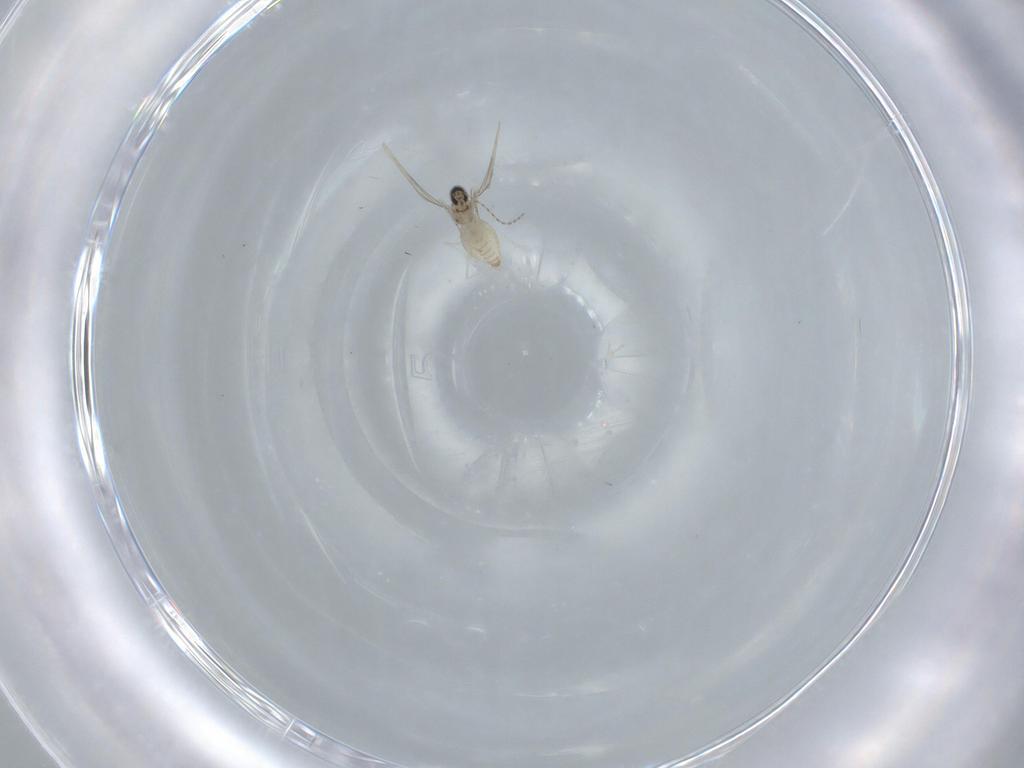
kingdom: Animalia
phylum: Arthropoda
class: Insecta
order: Diptera
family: Cecidomyiidae
